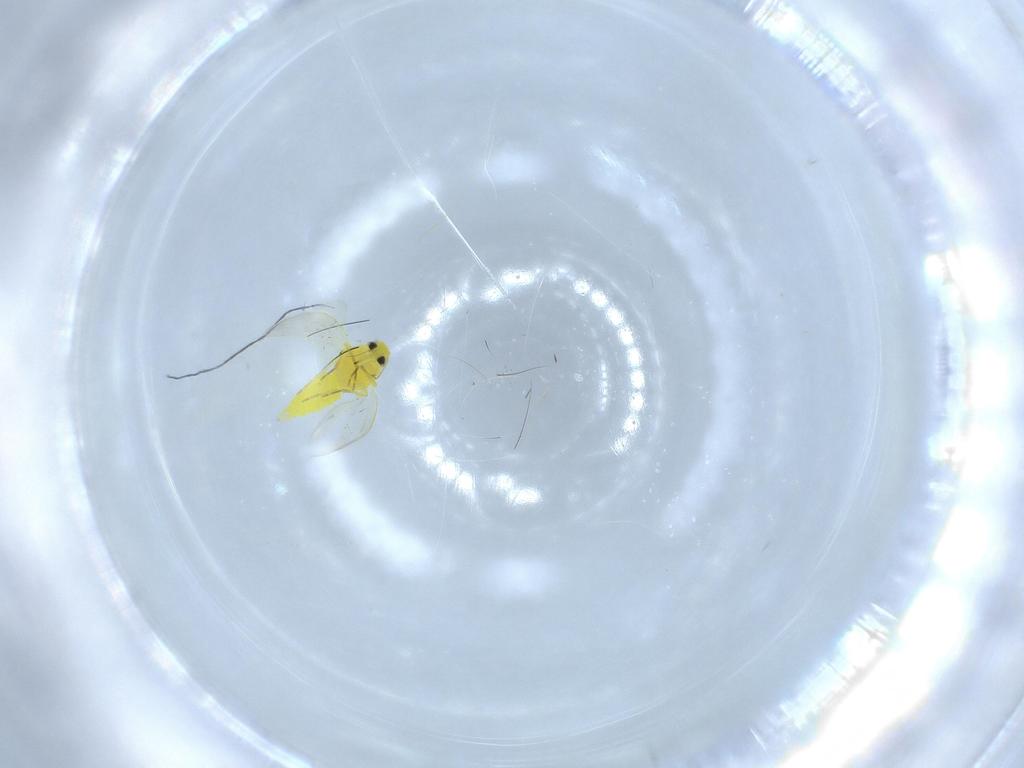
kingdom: Animalia
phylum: Arthropoda
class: Insecta
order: Hemiptera
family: Aleyrodidae
